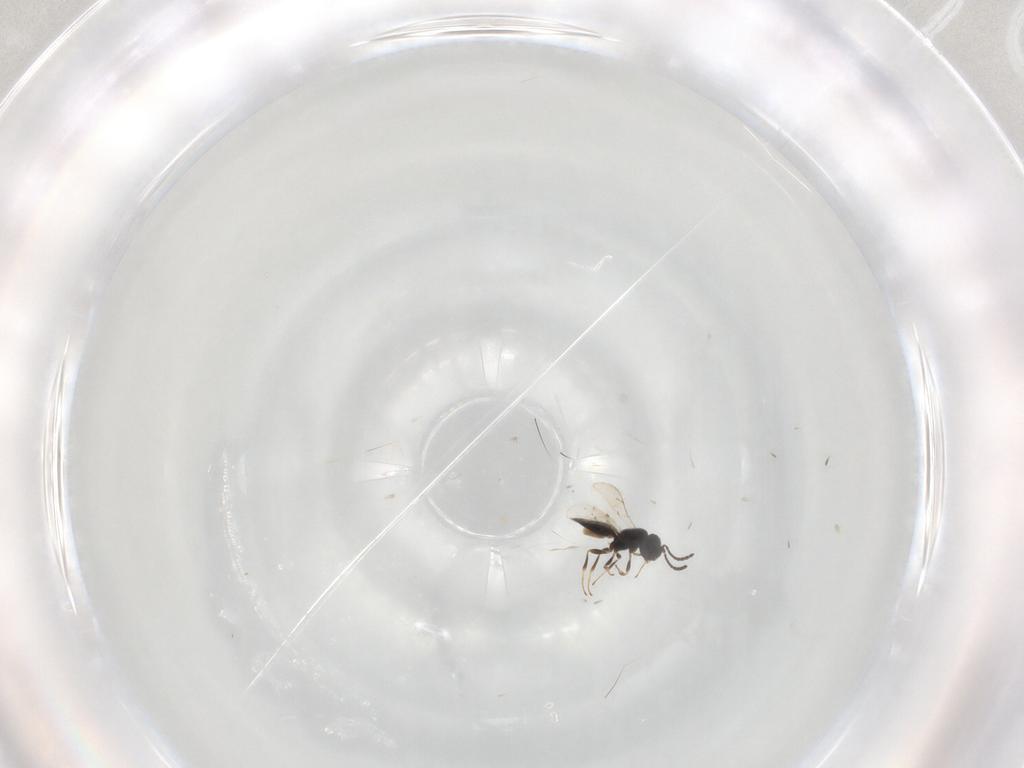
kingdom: Animalia
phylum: Arthropoda
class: Insecta
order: Hymenoptera
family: Scelionidae
